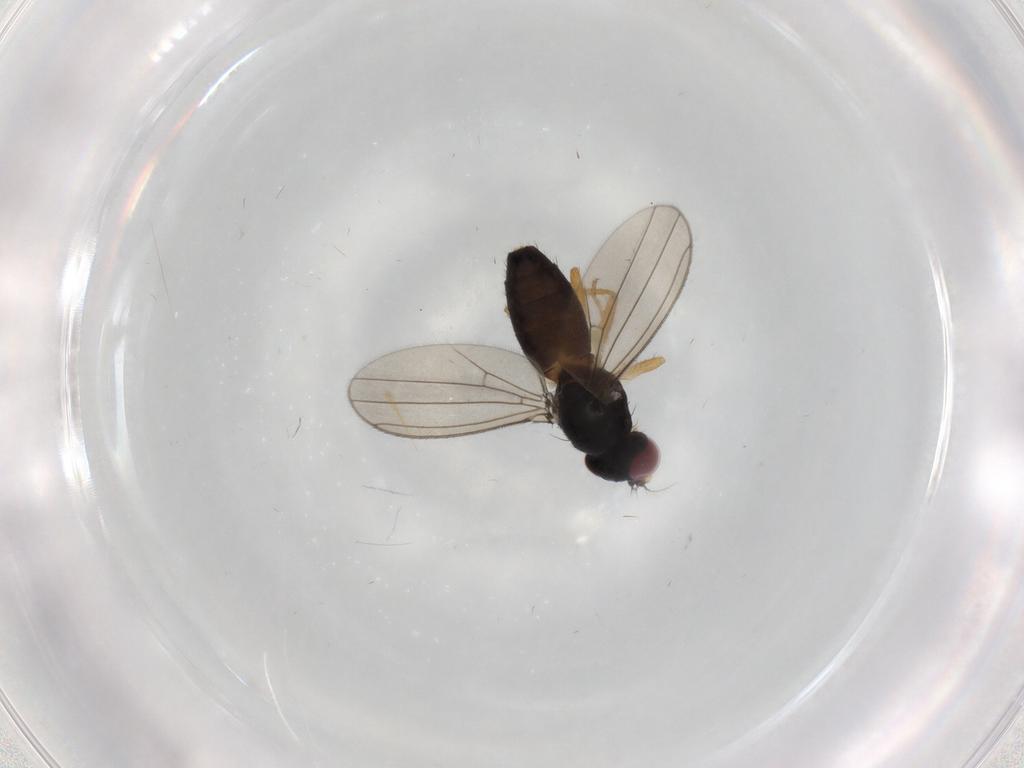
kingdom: Animalia
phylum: Arthropoda
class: Insecta
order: Diptera
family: Anthomyzidae
